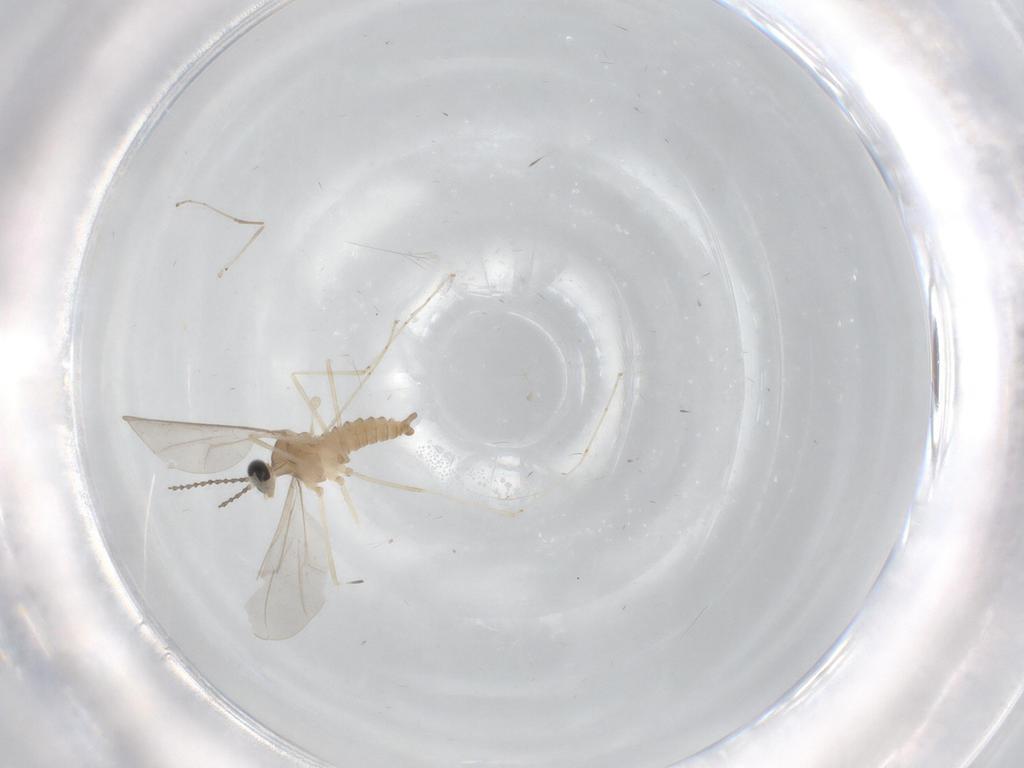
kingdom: Animalia
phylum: Arthropoda
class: Insecta
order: Diptera
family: Cecidomyiidae
